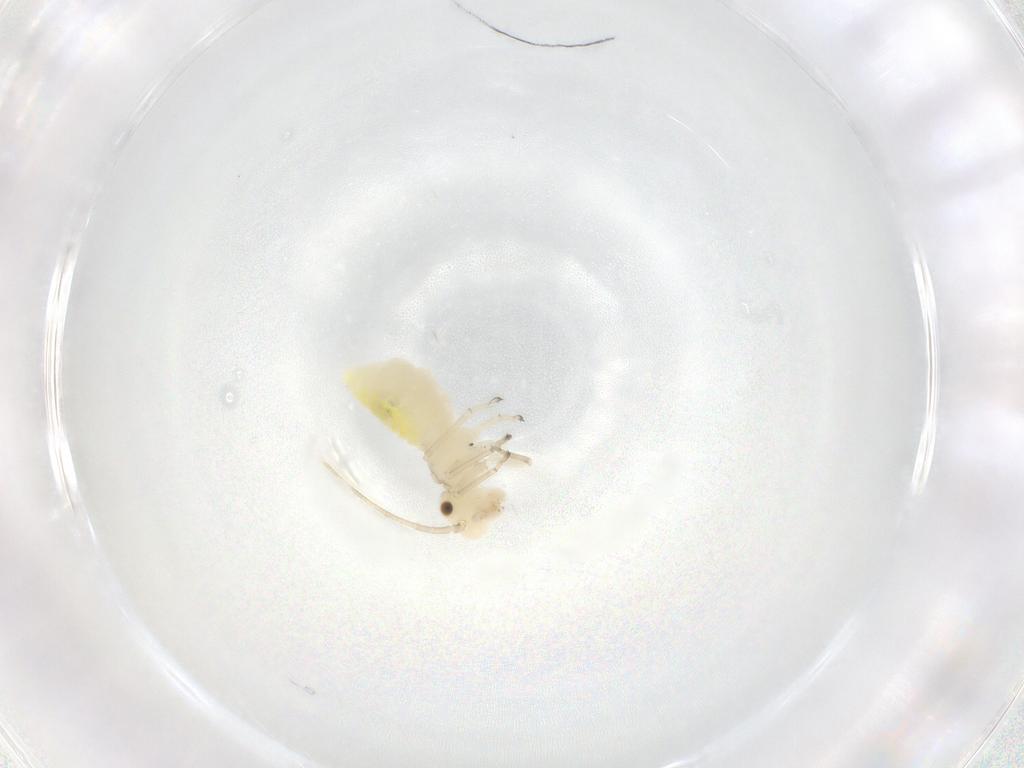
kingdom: Animalia
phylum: Arthropoda
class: Insecta
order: Psocodea
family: Caeciliusidae
